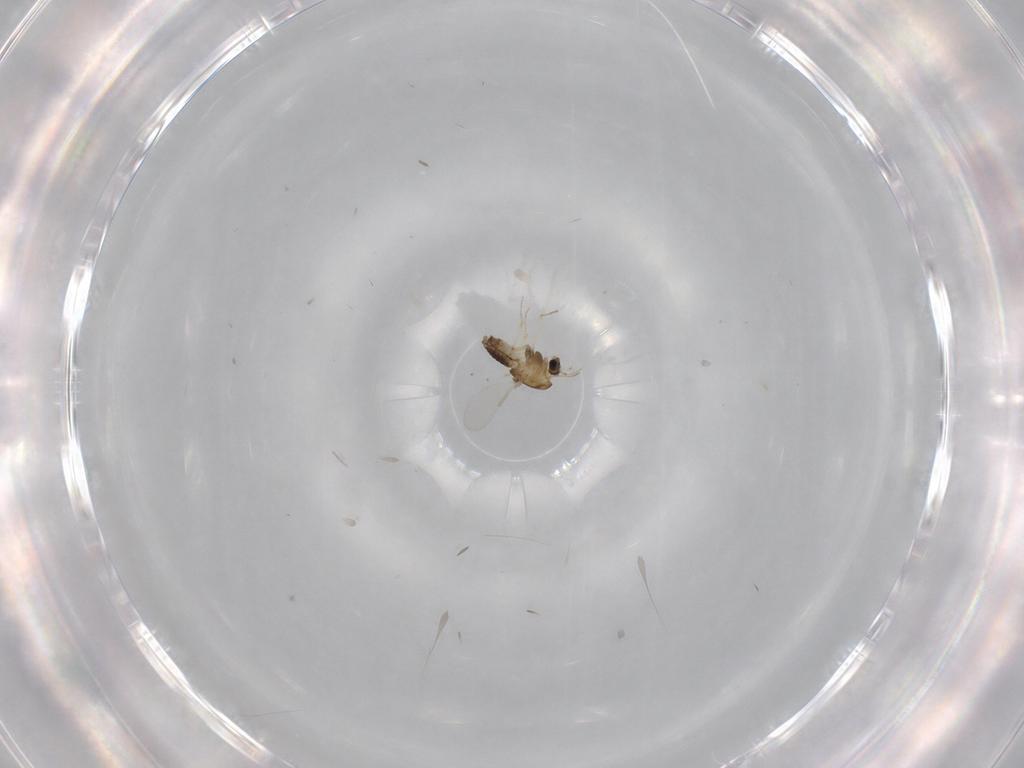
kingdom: Animalia
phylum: Arthropoda
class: Insecta
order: Diptera
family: Chironomidae
